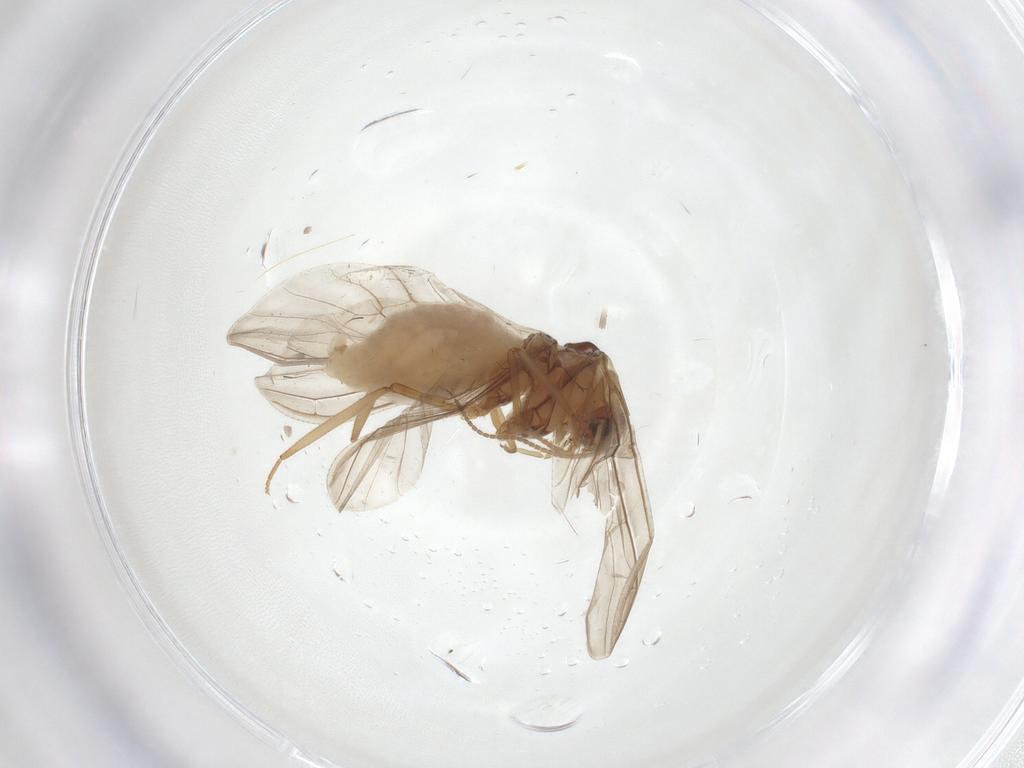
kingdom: Animalia
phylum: Arthropoda
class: Insecta
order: Neuroptera
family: Coniopterygidae
